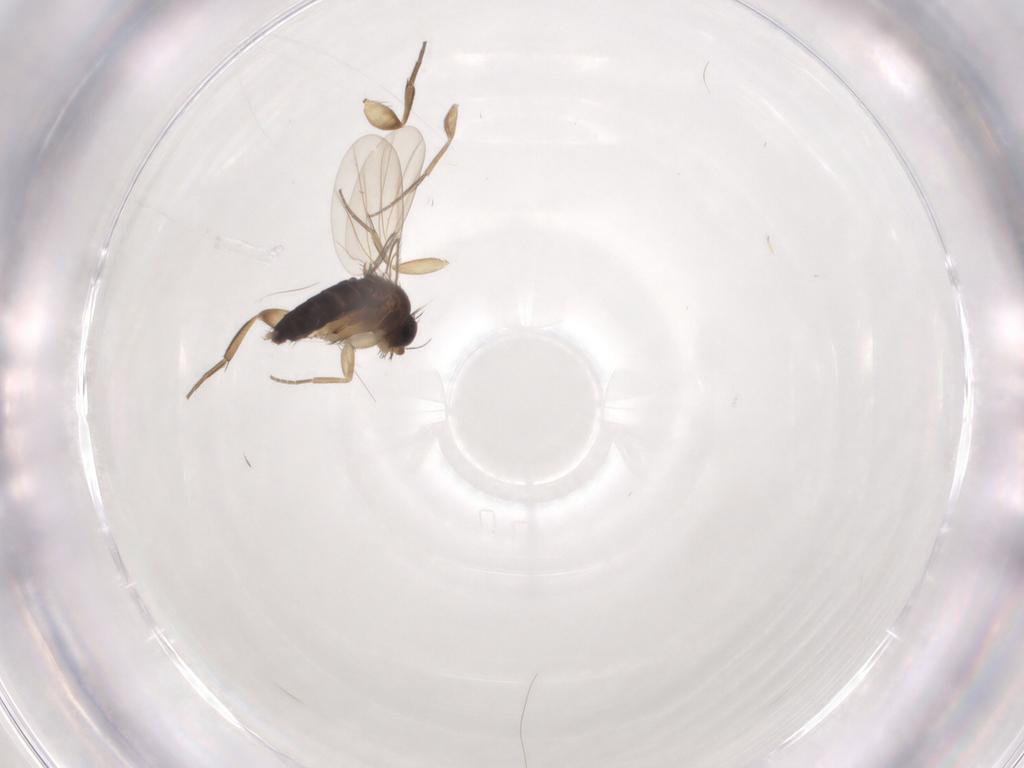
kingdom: Animalia
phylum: Arthropoda
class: Insecta
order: Diptera
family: Phoridae
